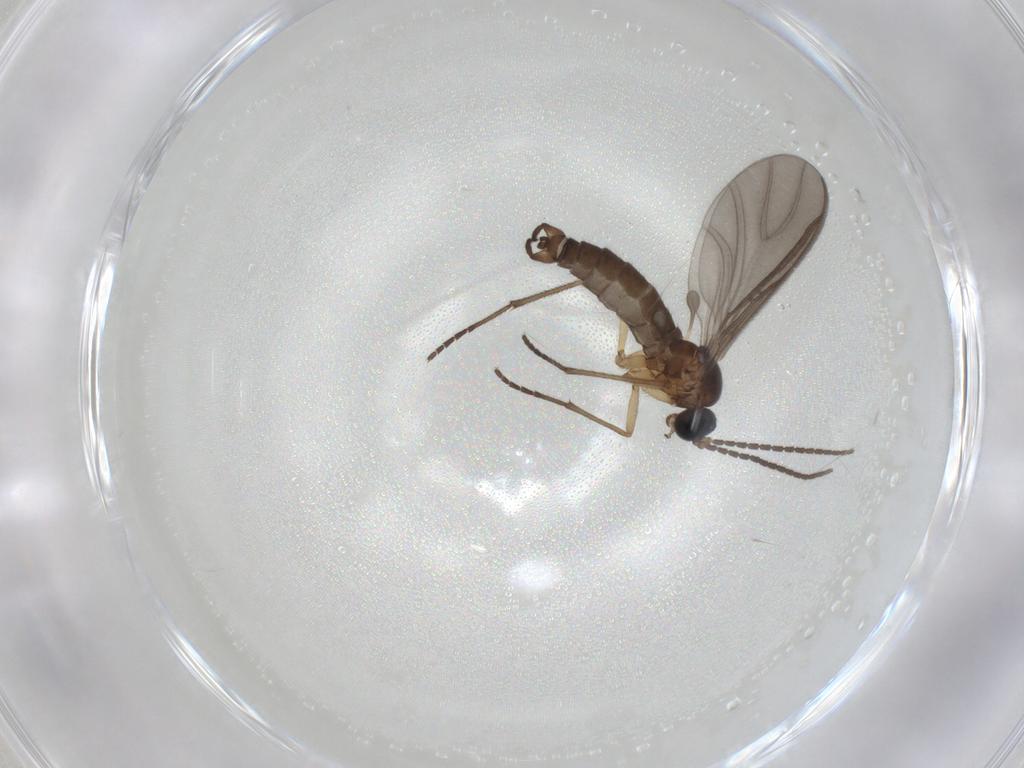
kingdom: Animalia
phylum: Arthropoda
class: Insecta
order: Diptera
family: Sciaridae
